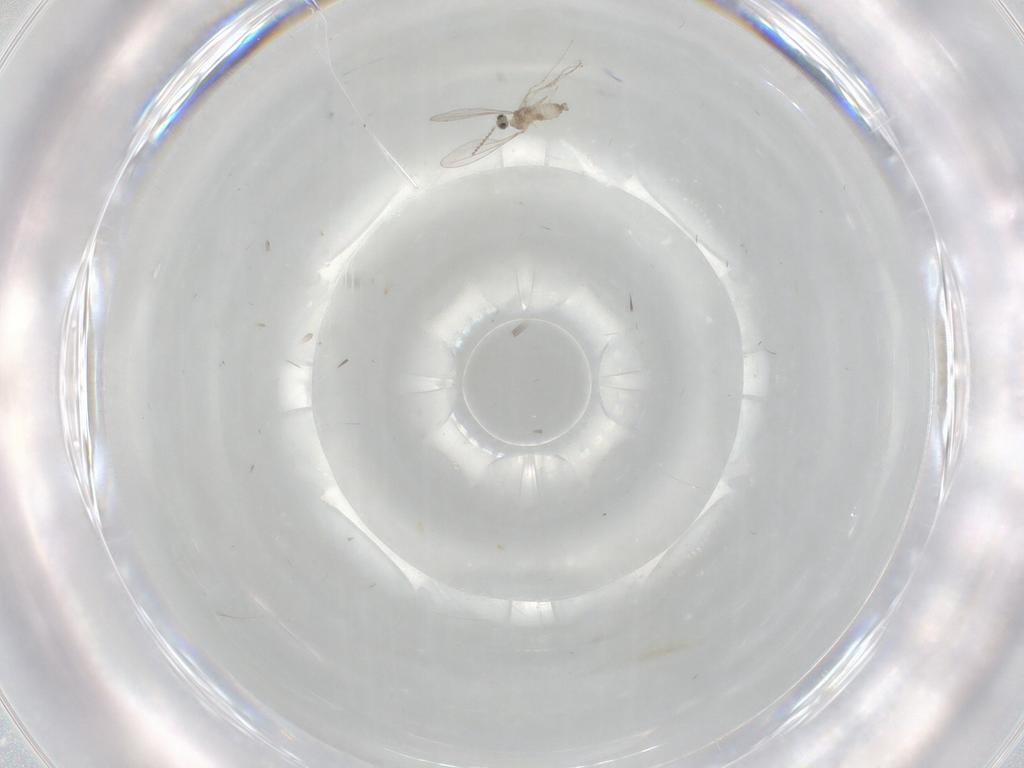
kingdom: Animalia
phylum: Arthropoda
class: Insecta
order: Diptera
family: Cecidomyiidae
